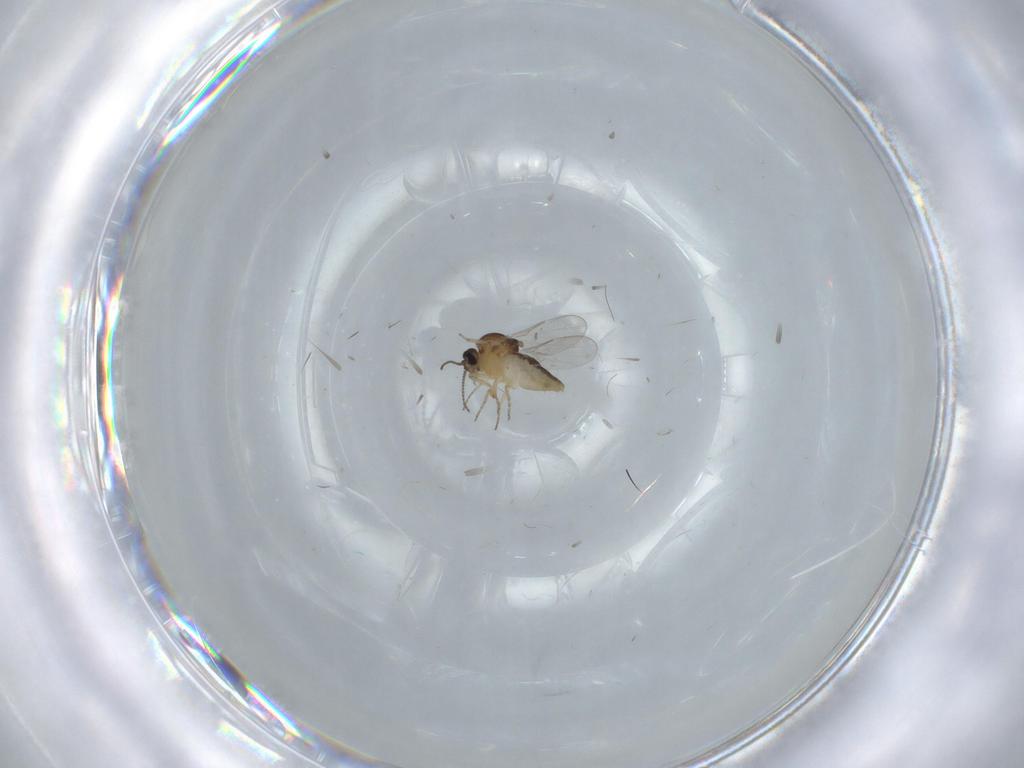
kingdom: Animalia
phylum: Arthropoda
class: Insecta
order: Diptera
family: Ceratopogonidae
